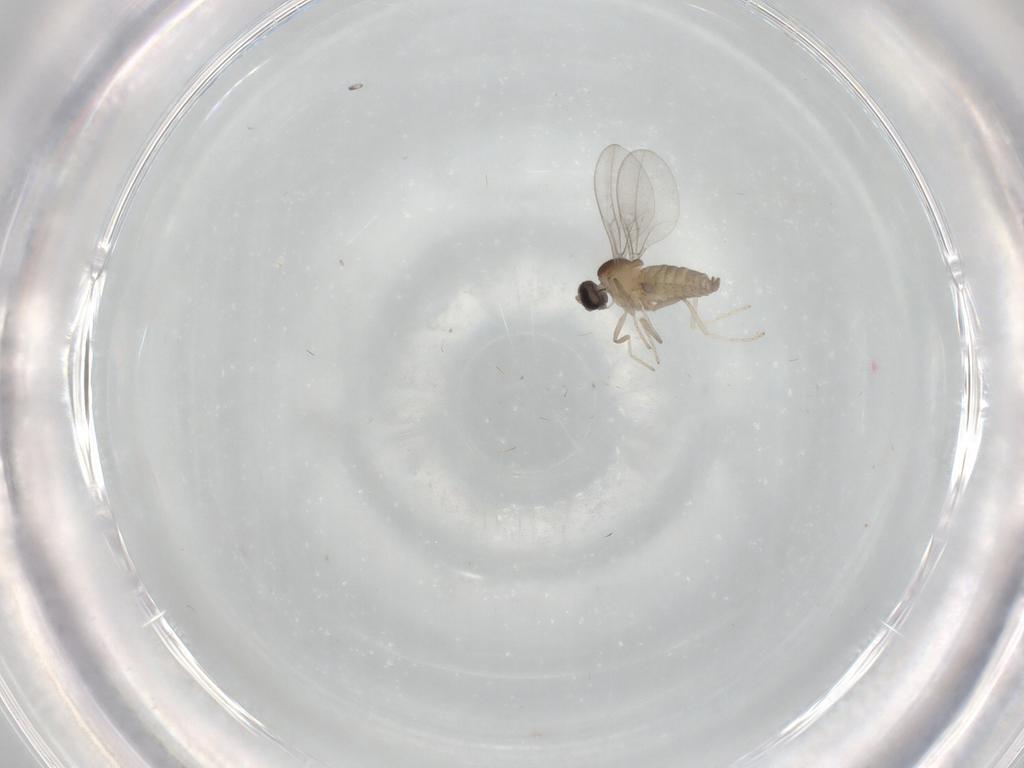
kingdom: Animalia
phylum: Arthropoda
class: Insecta
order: Diptera
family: Cecidomyiidae
